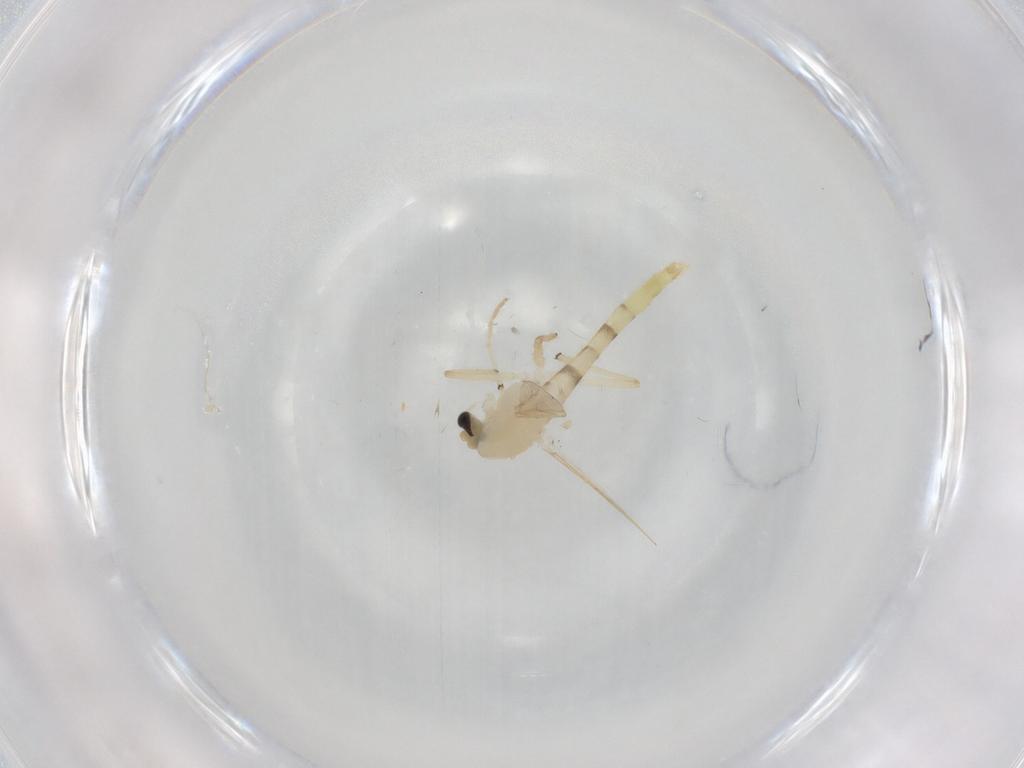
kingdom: Animalia
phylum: Arthropoda
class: Insecta
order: Diptera
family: Chironomidae
